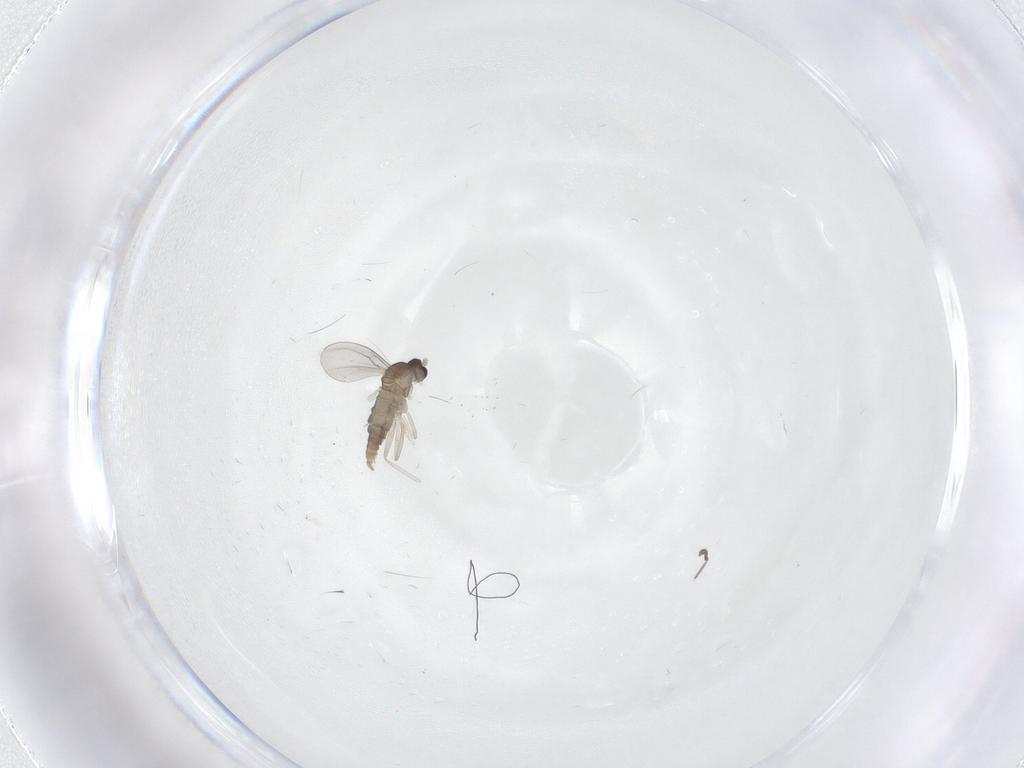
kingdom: Animalia
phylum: Arthropoda
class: Insecta
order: Diptera
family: Cecidomyiidae
